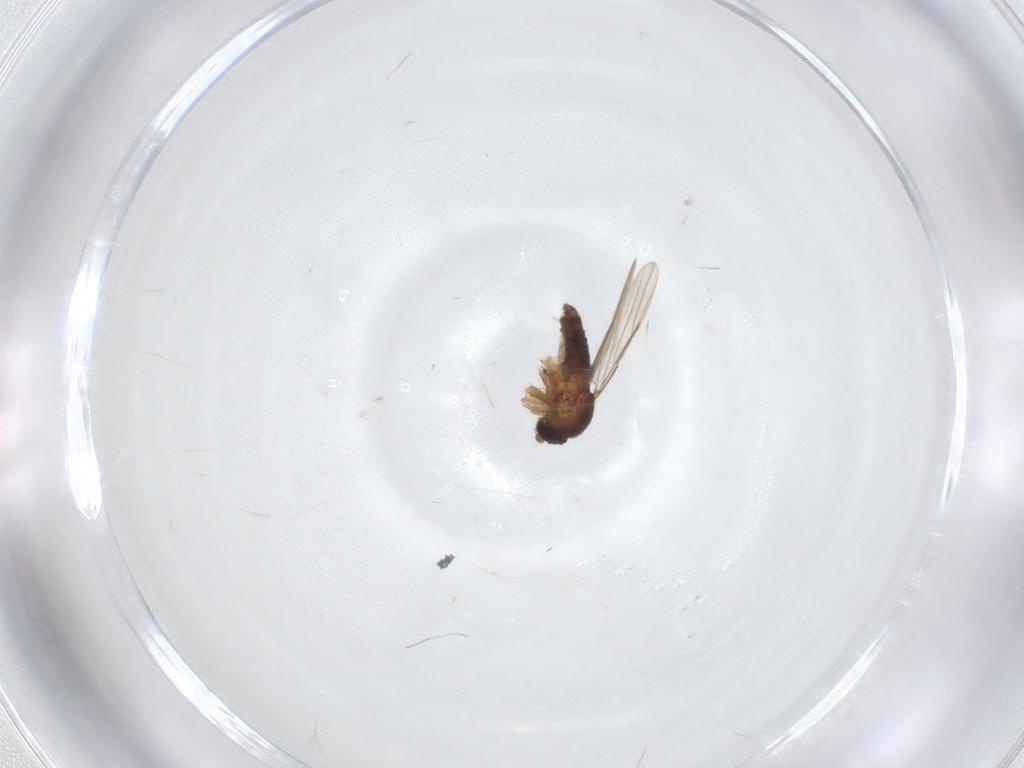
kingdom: Animalia
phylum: Arthropoda
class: Insecta
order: Diptera
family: Phoridae
